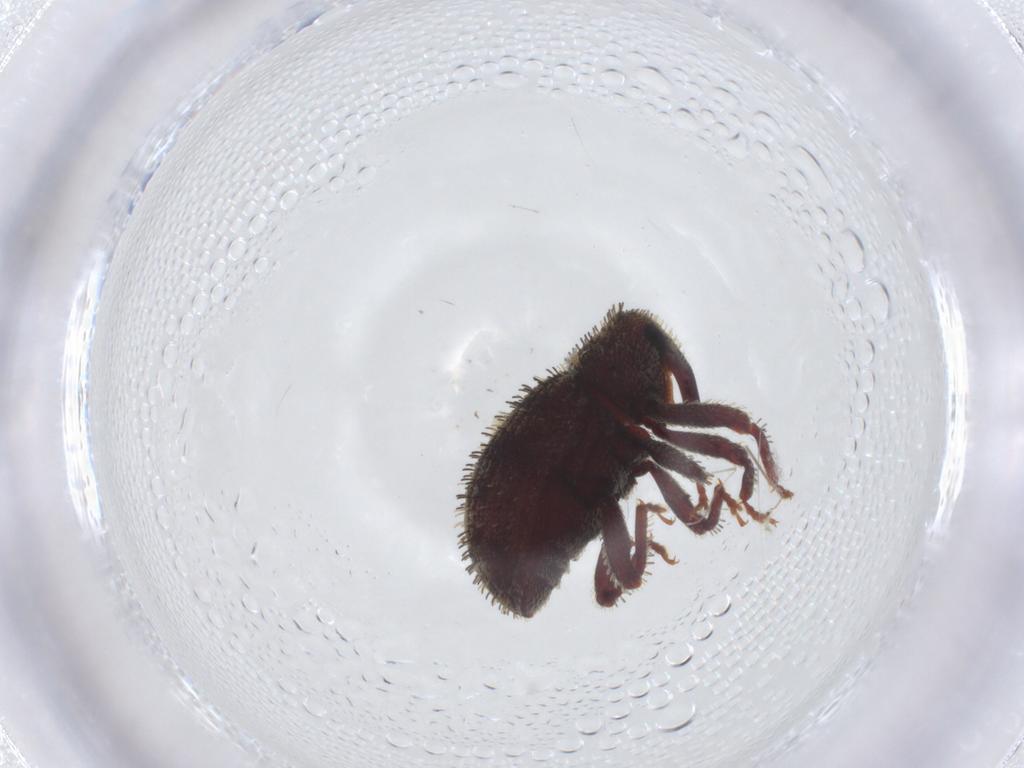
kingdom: Animalia
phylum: Arthropoda
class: Insecta
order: Coleoptera
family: Curculionidae
